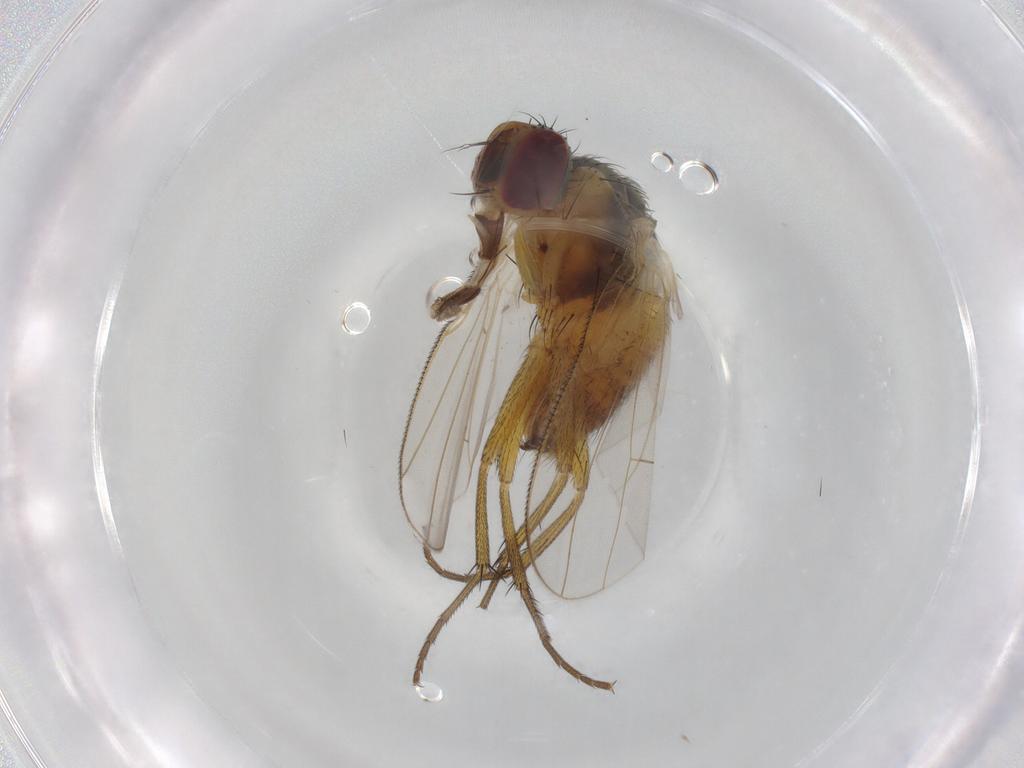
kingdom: Animalia
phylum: Arthropoda
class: Insecta
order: Diptera
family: Muscidae
